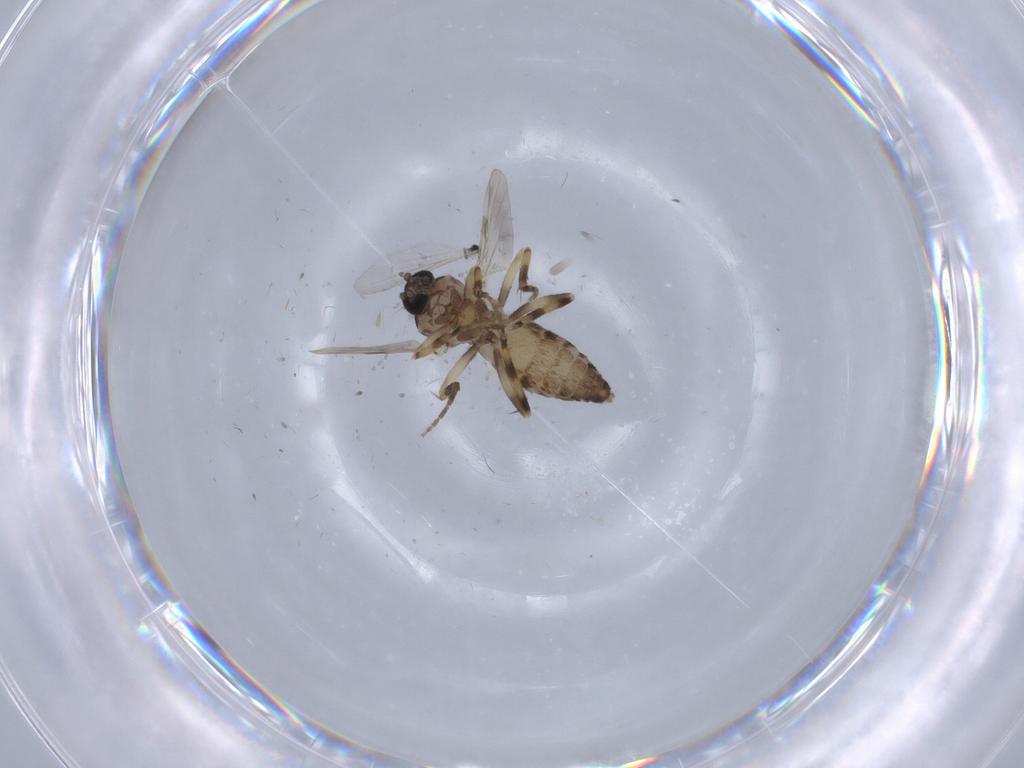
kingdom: Animalia
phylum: Arthropoda
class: Insecta
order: Diptera
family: Ceratopogonidae
